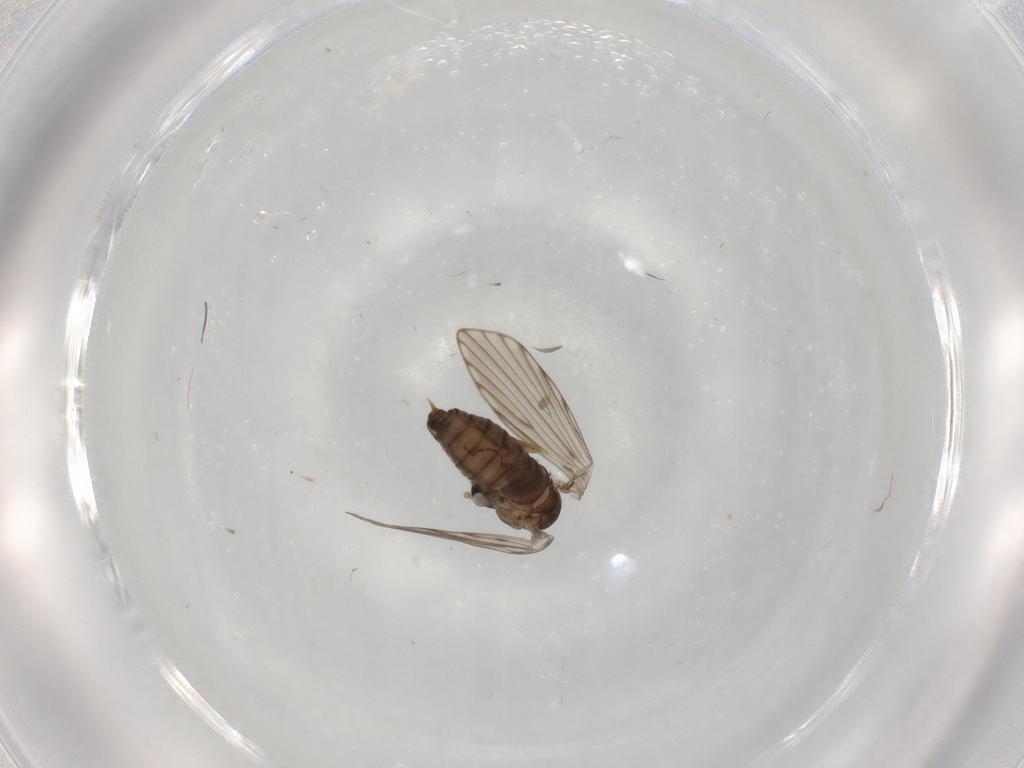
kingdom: Animalia
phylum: Arthropoda
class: Insecta
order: Diptera
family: Psychodidae
